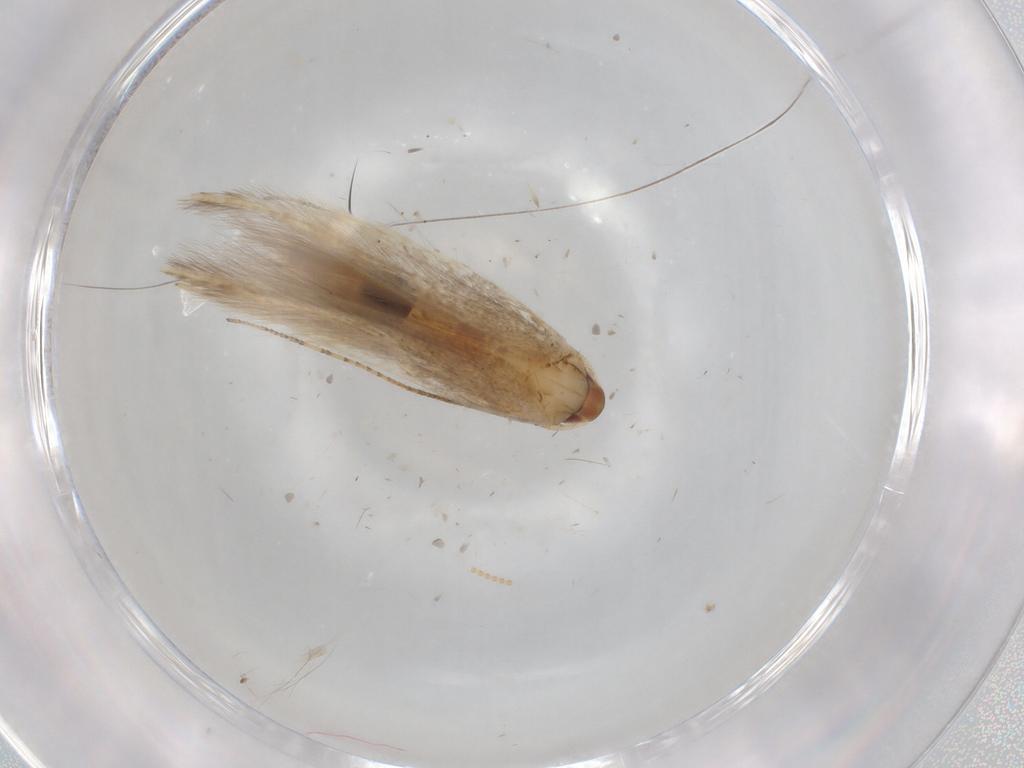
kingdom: Animalia
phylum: Arthropoda
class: Insecta
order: Lepidoptera
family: Cosmopterigidae
